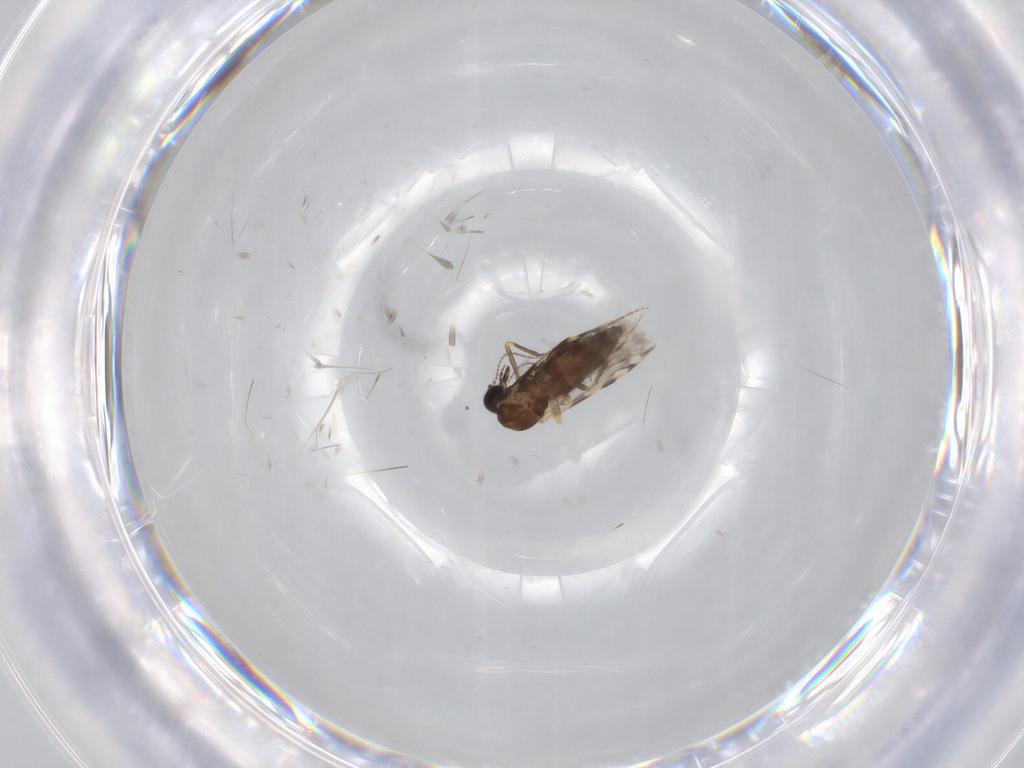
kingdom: Animalia
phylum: Arthropoda
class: Insecta
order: Diptera
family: Ceratopogonidae
